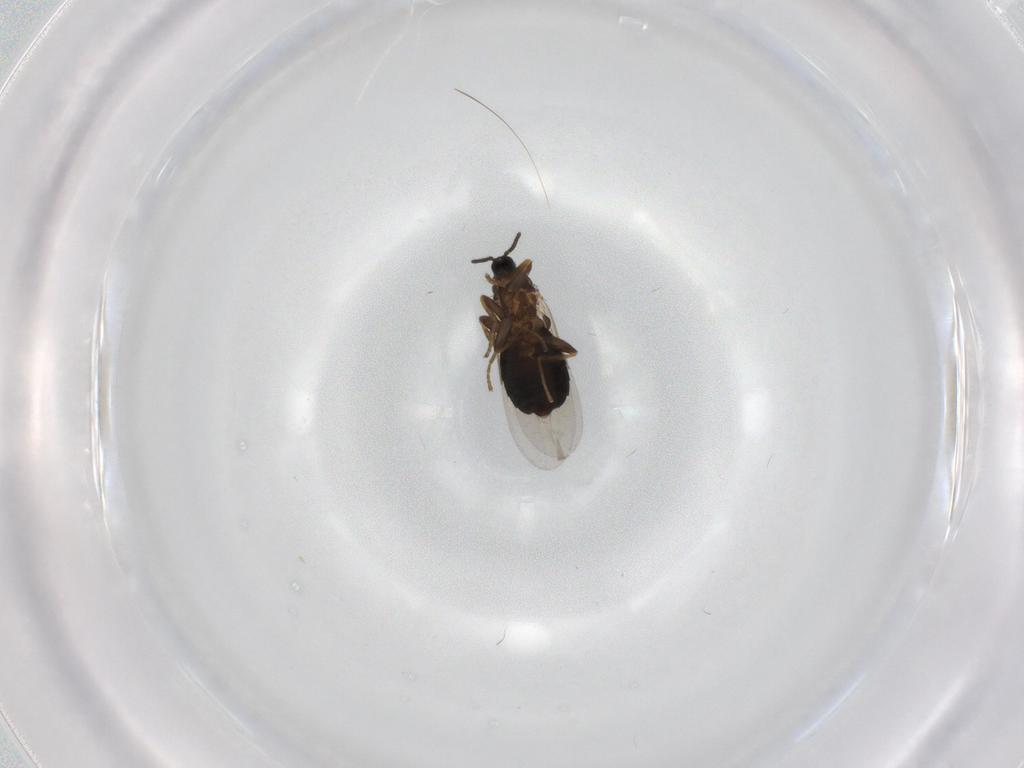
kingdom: Animalia
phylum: Arthropoda
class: Insecta
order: Diptera
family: Scatopsidae
